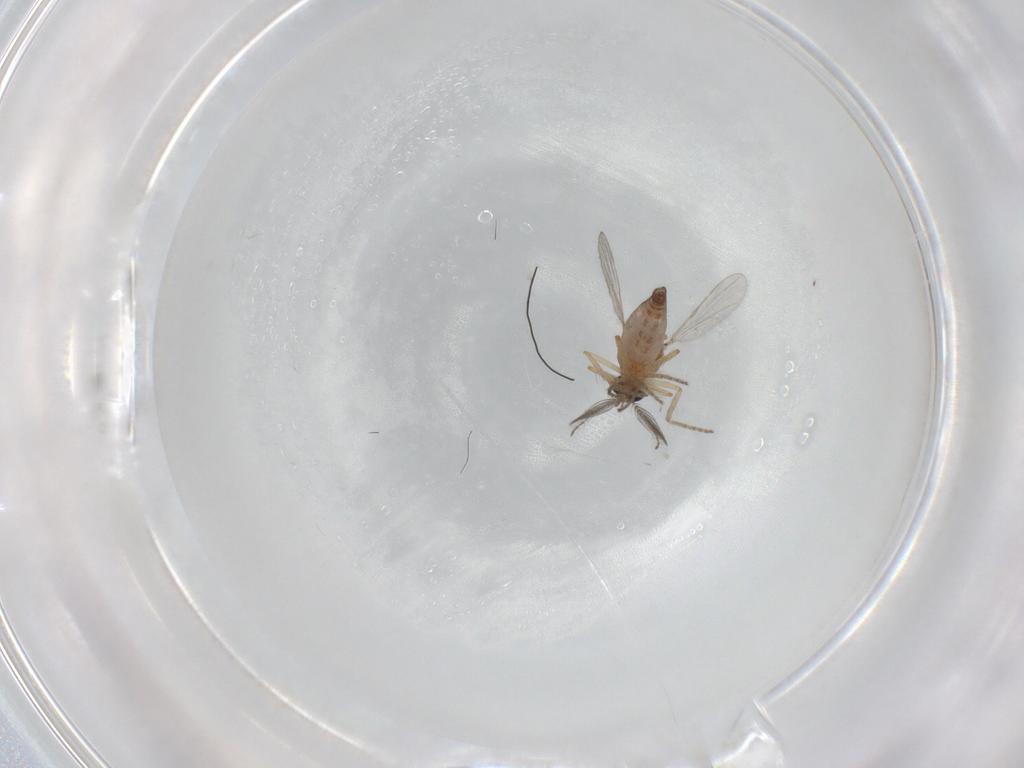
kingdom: Animalia
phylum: Arthropoda
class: Insecta
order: Diptera
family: Ceratopogonidae
